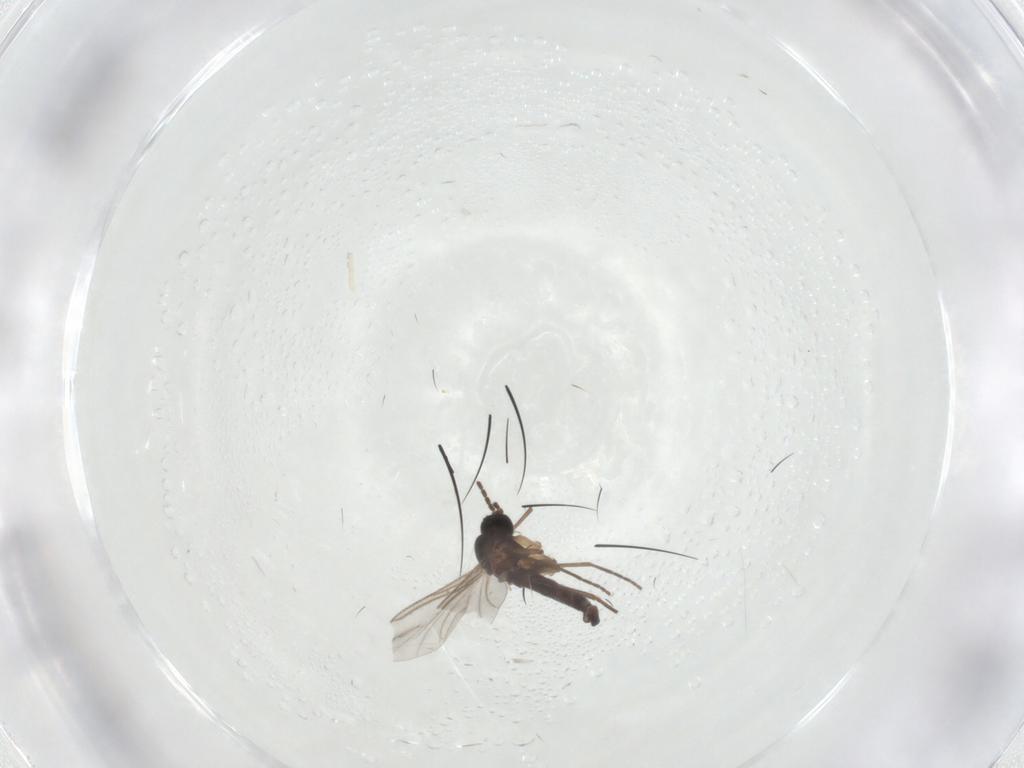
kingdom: Animalia
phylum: Arthropoda
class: Insecta
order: Diptera
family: Sciaridae
